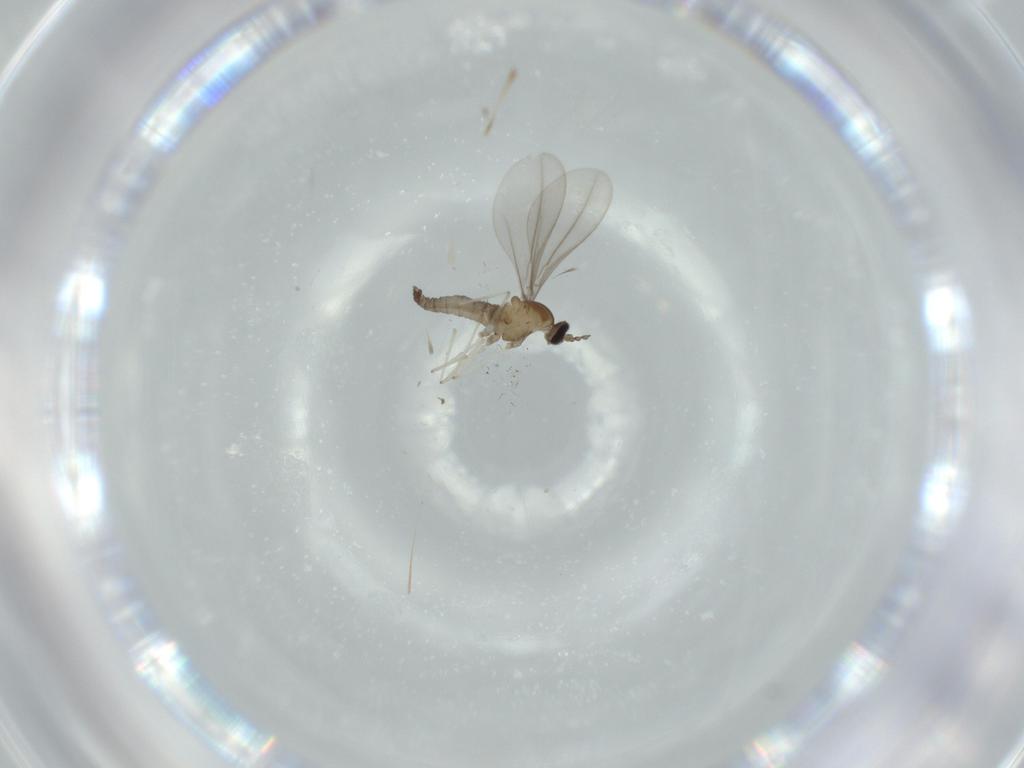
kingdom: Animalia
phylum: Arthropoda
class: Insecta
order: Diptera
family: Cecidomyiidae
